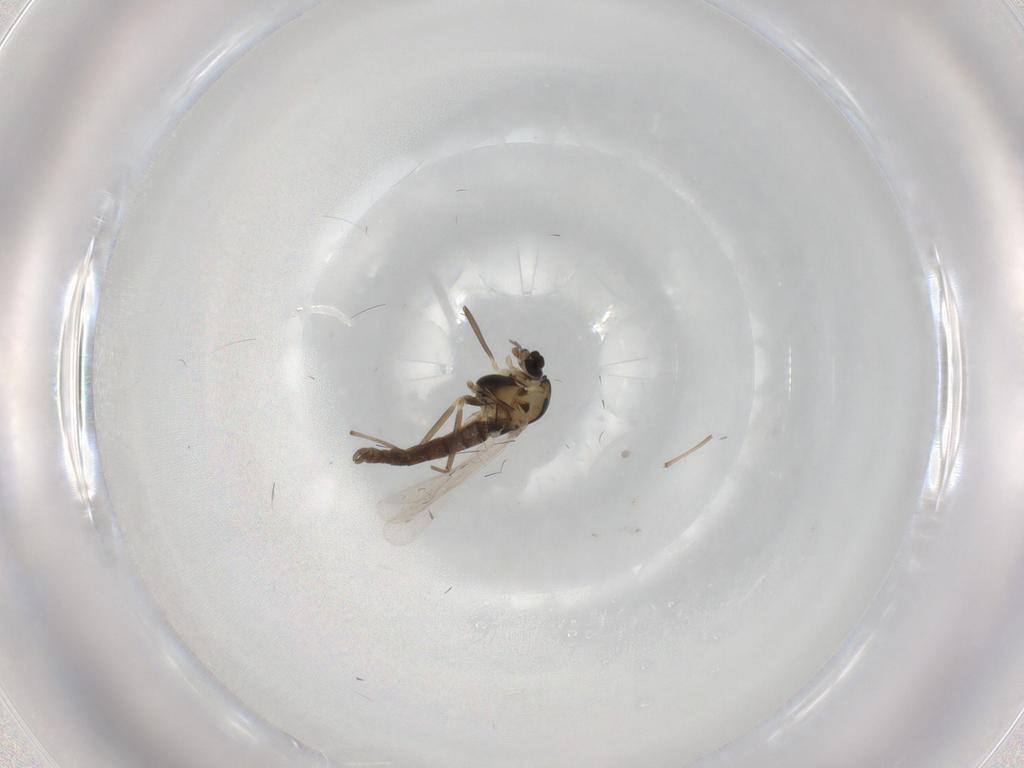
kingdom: Animalia
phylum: Arthropoda
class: Insecta
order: Diptera
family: Chironomidae
